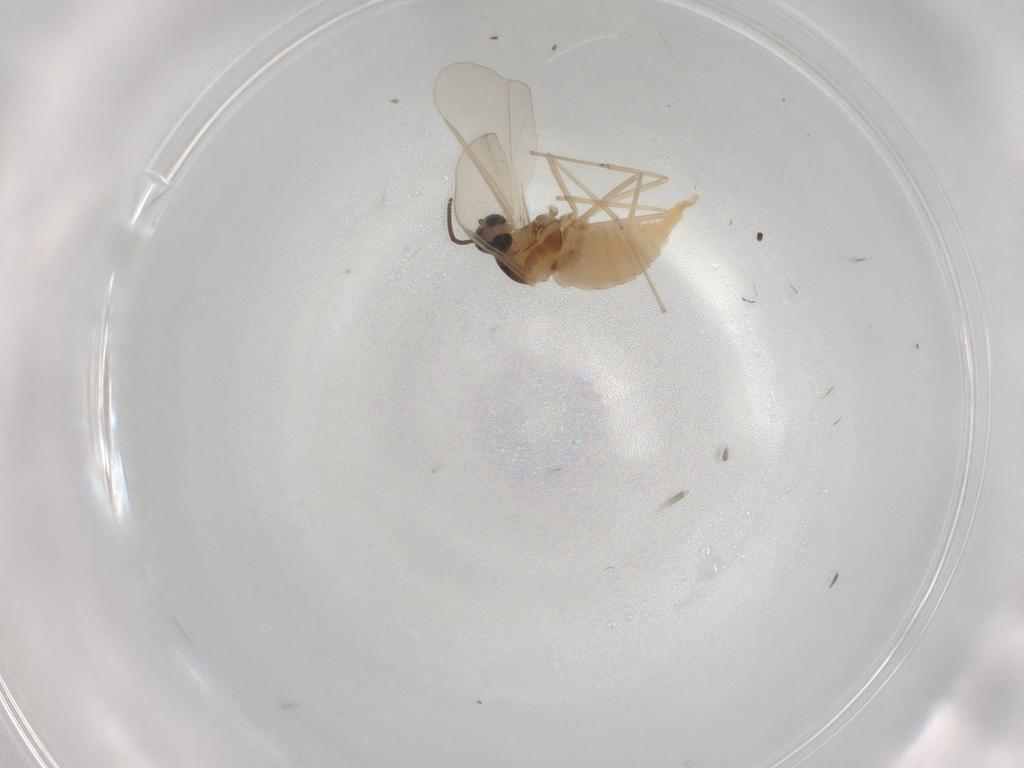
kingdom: Animalia
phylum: Arthropoda
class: Insecta
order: Diptera
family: Cecidomyiidae
